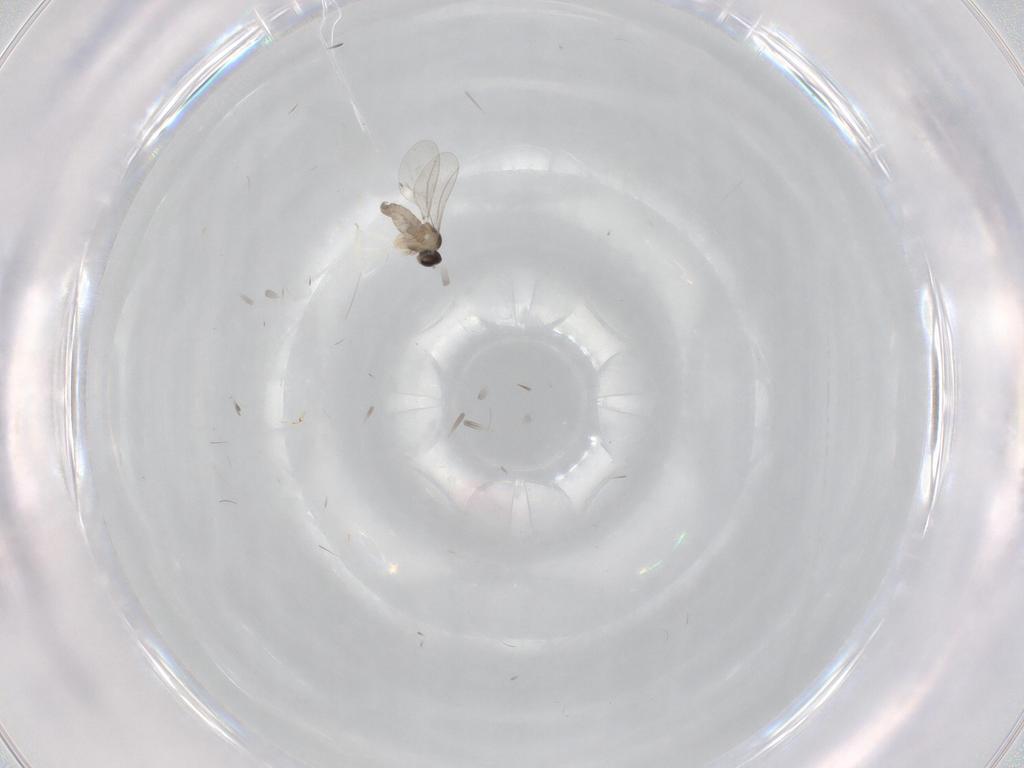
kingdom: Animalia
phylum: Arthropoda
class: Insecta
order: Diptera
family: Cecidomyiidae
